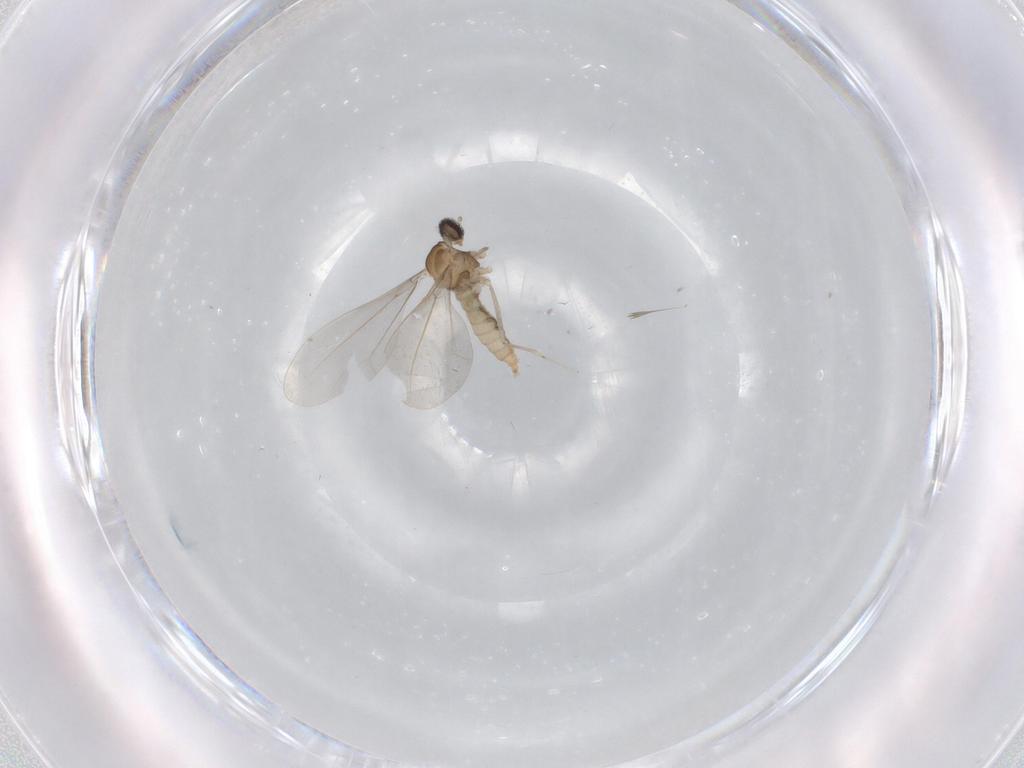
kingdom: Animalia
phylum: Arthropoda
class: Insecta
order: Diptera
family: Cecidomyiidae
